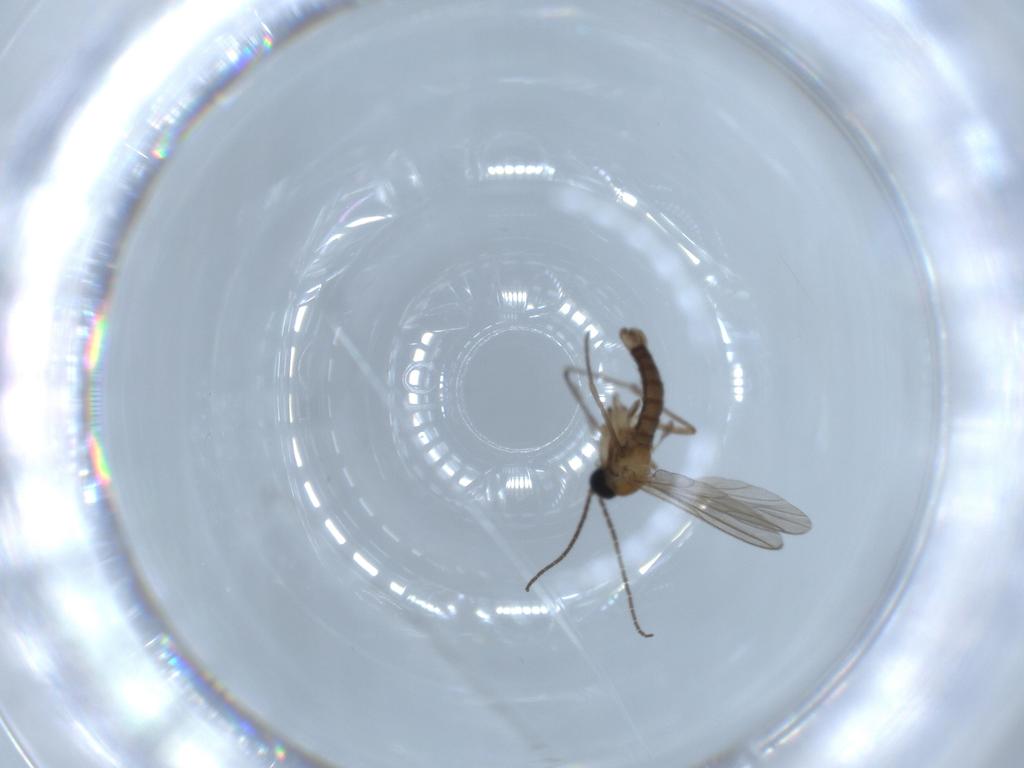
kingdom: Animalia
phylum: Arthropoda
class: Insecta
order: Diptera
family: Sciaridae
